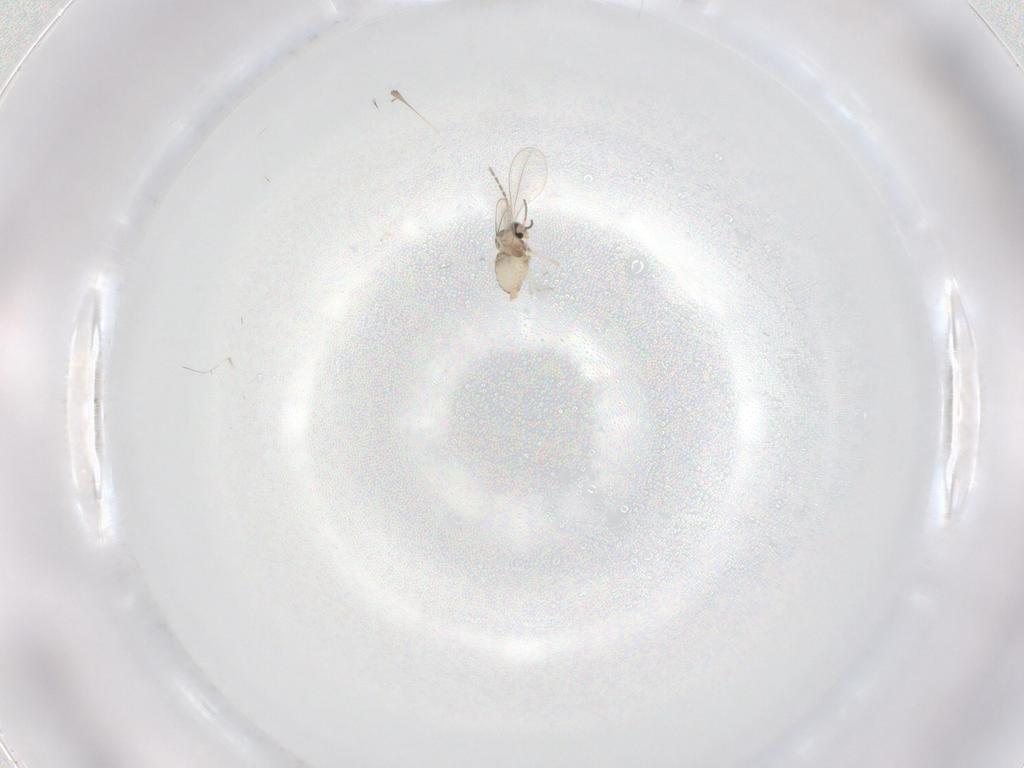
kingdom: Animalia
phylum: Arthropoda
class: Insecta
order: Diptera
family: Cecidomyiidae
